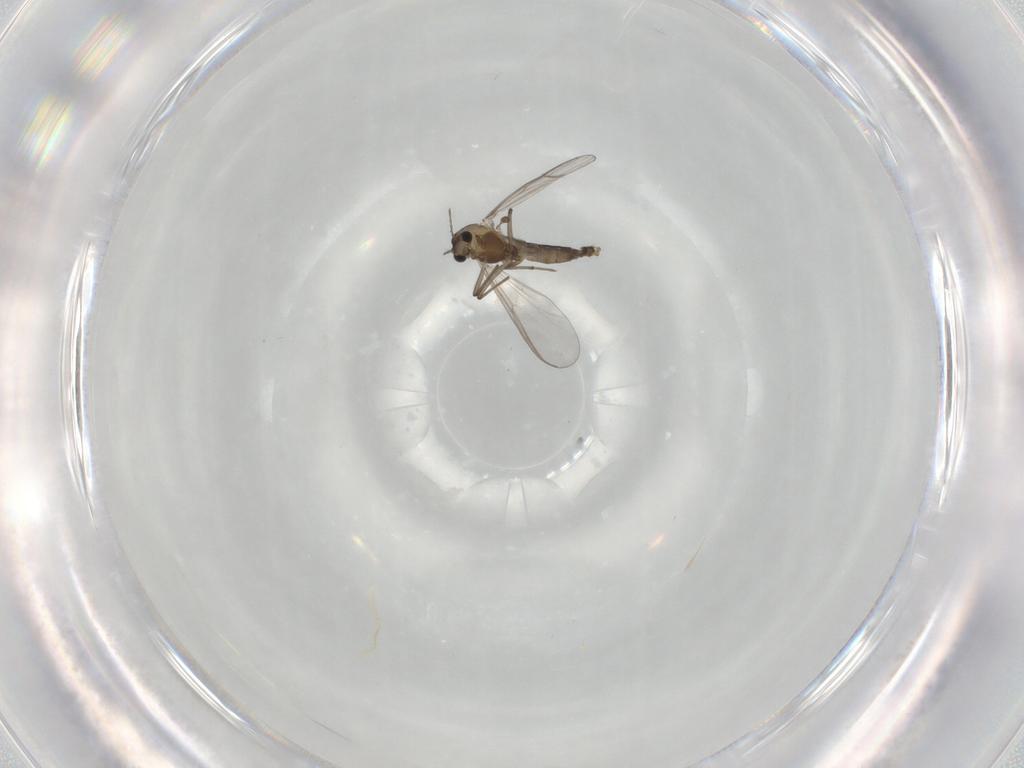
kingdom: Animalia
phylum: Arthropoda
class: Insecta
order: Diptera
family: Chironomidae
